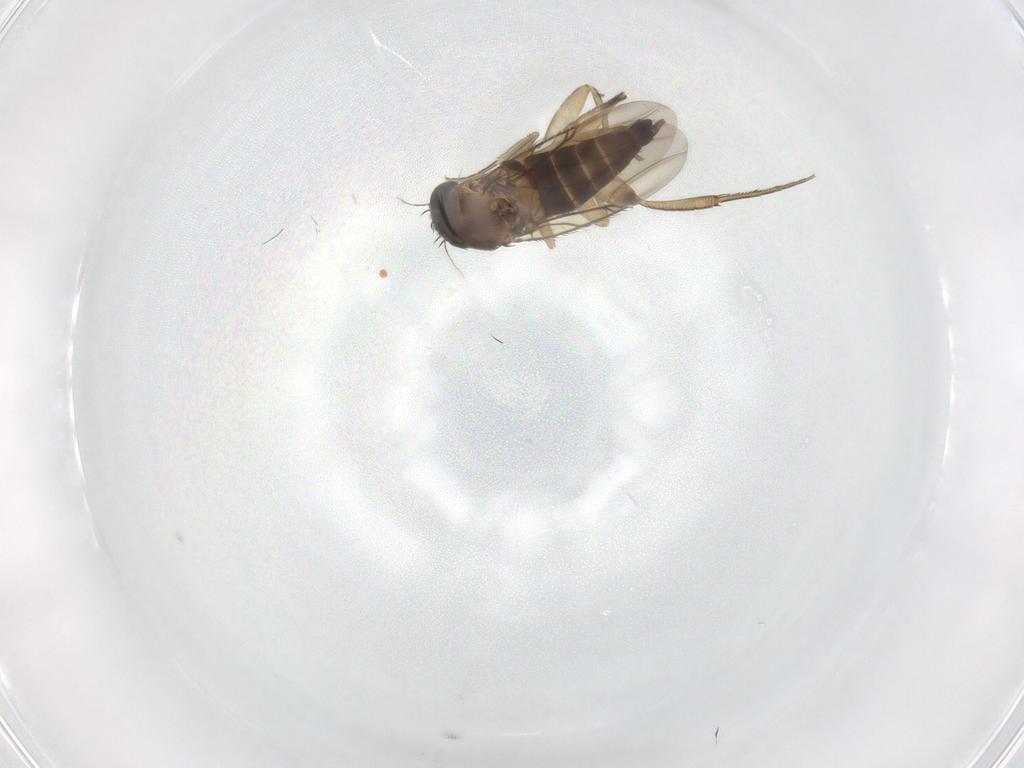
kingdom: Animalia
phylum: Arthropoda
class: Insecta
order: Diptera
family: Phoridae
